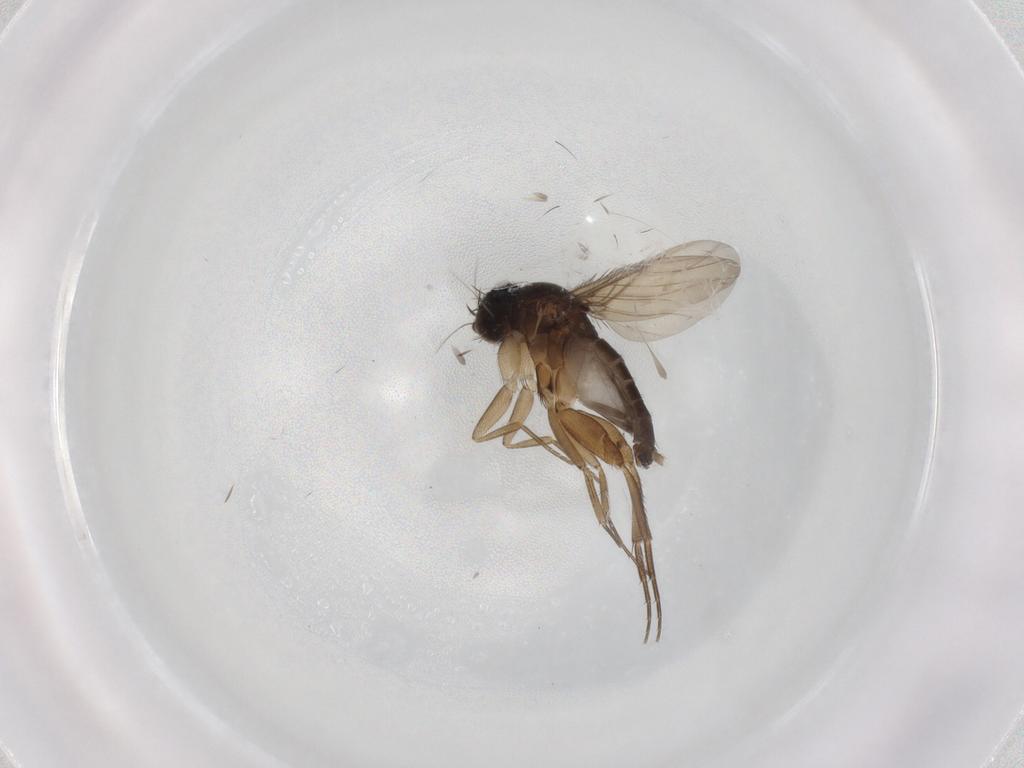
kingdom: Animalia
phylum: Arthropoda
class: Insecta
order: Diptera
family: Phoridae
